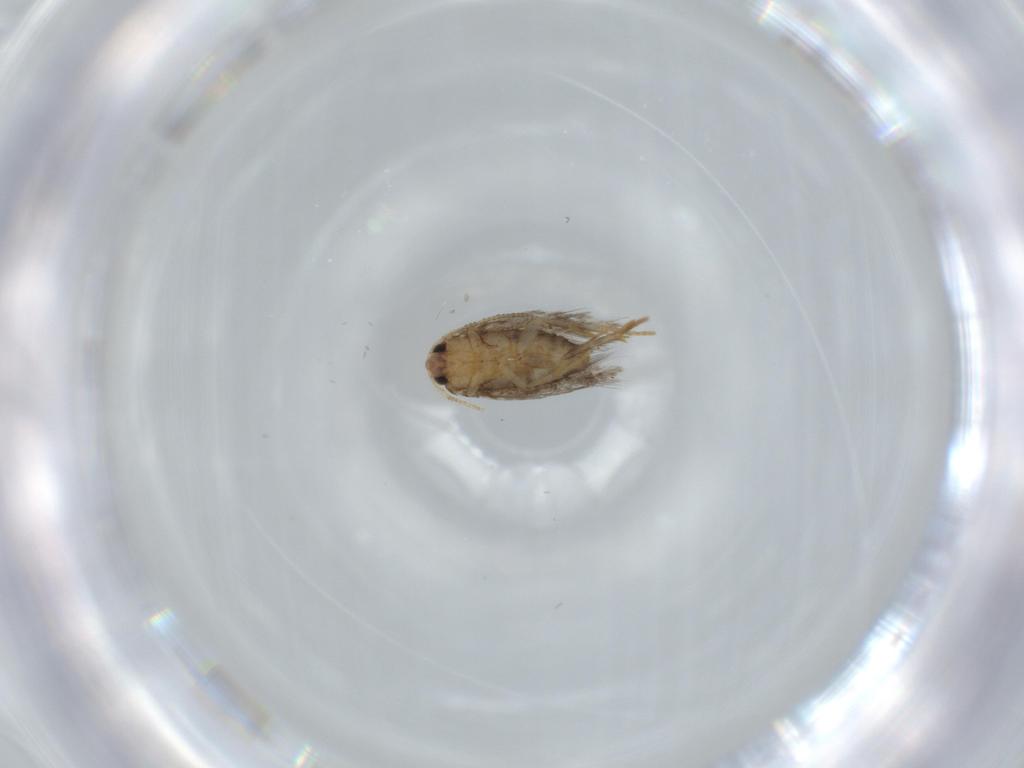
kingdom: Animalia
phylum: Arthropoda
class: Insecta
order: Lepidoptera
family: Nepticulidae
